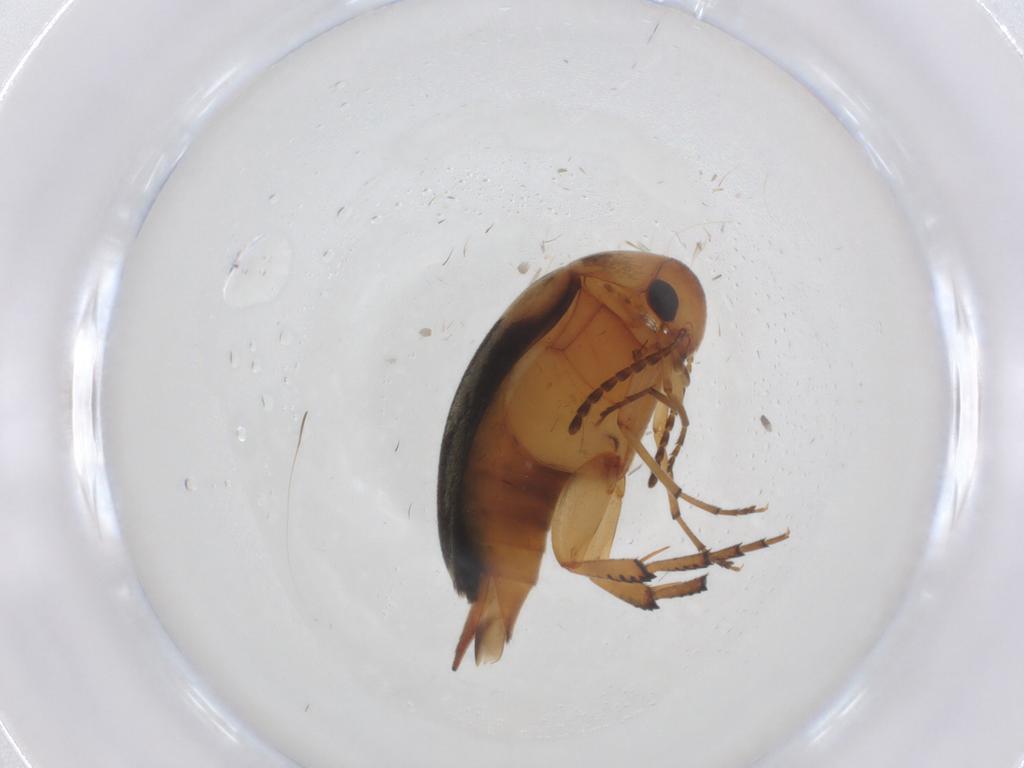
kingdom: Animalia
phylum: Arthropoda
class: Insecta
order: Coleoptera
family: Mordellidae
